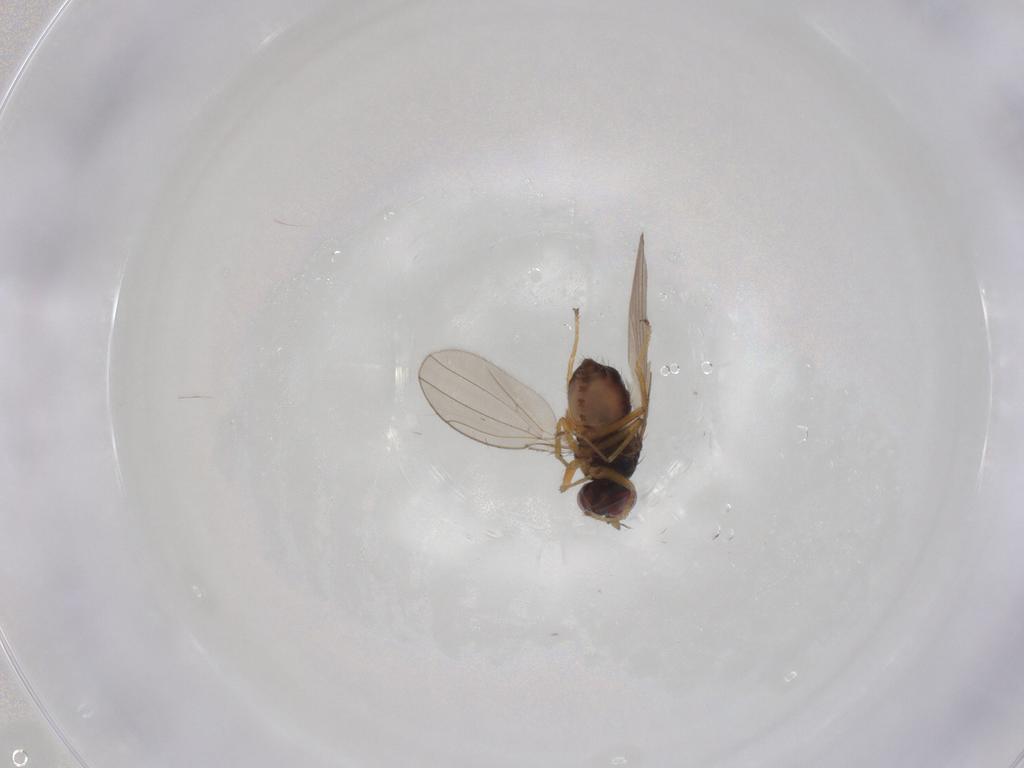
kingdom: Animalia
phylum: Arthropoda
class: Insecta
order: Diptera
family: Ephydridae
